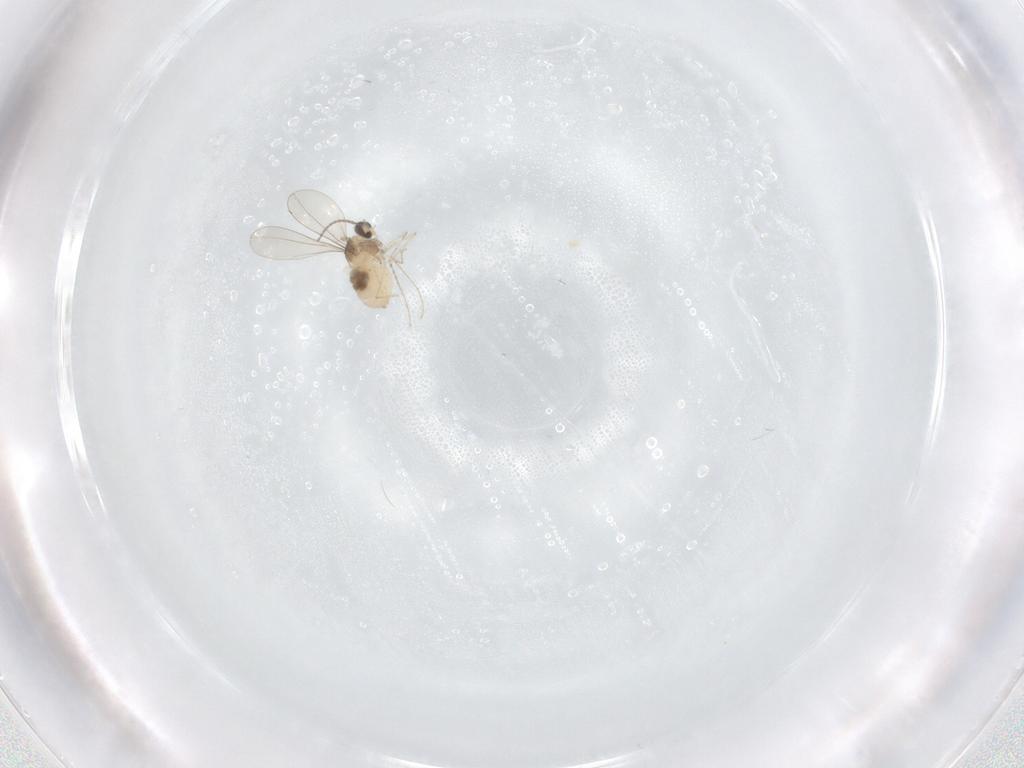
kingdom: Animalia
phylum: Arthropoda
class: Insecta
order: Diptera
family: Cecidomyiidae
